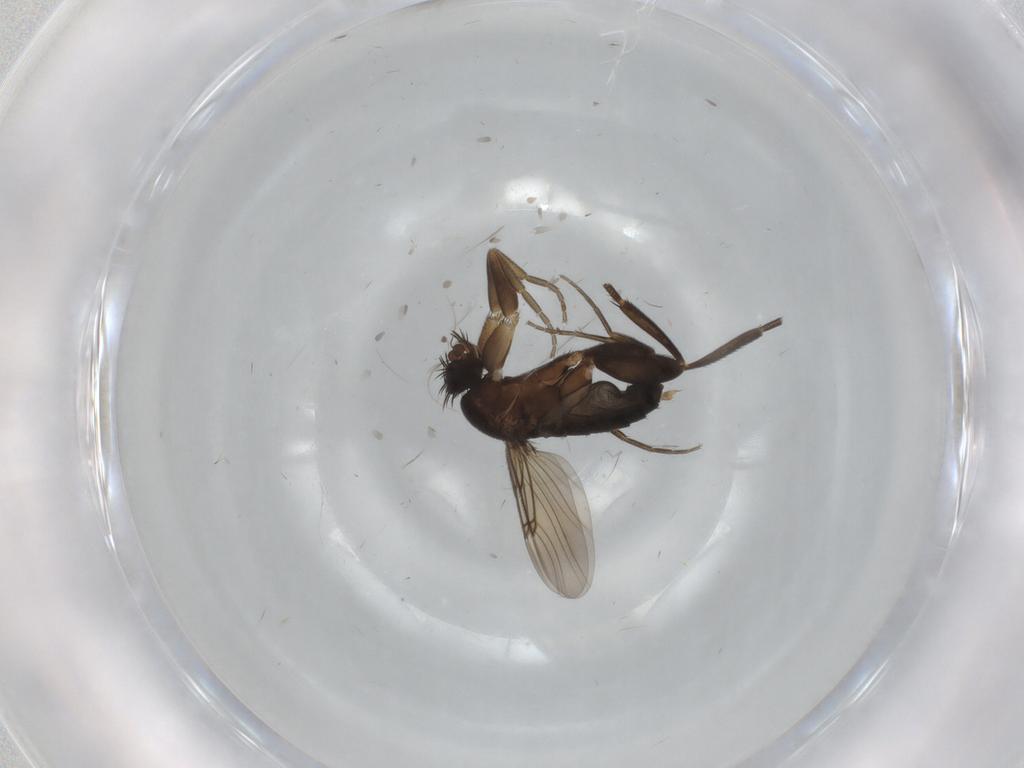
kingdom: Animalia
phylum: Arthropoda
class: Insecta
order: Diptera
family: Phoridae
